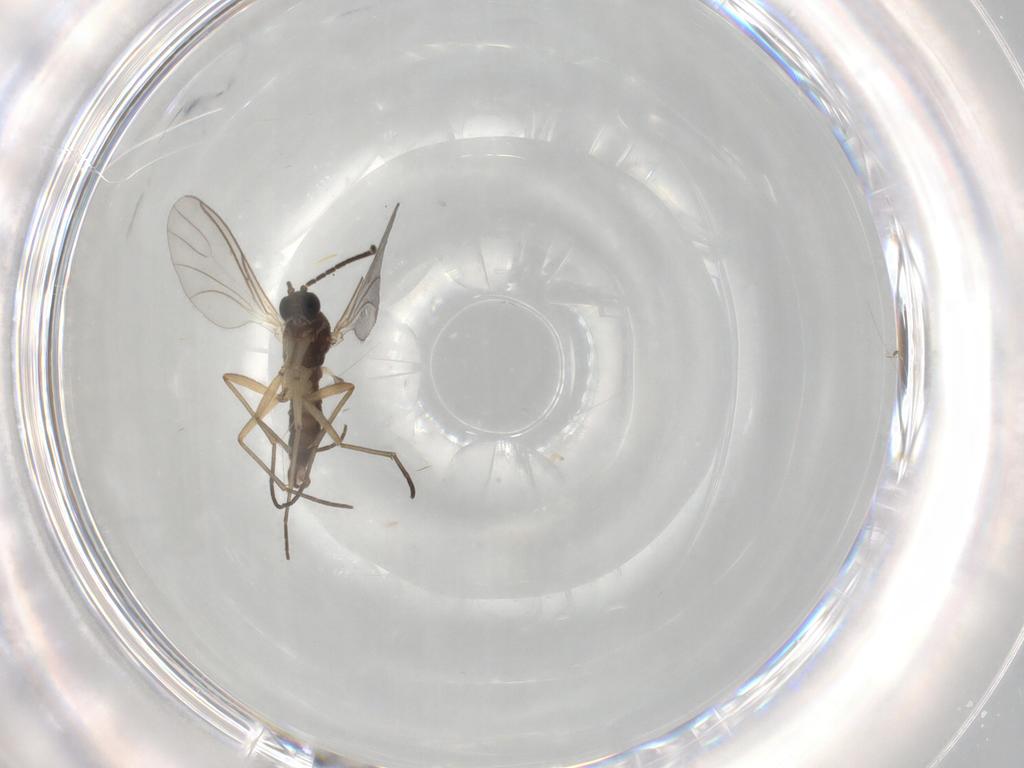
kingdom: Animalia
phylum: Arthropoda
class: Insecta
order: Diptera
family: Sciaridae
